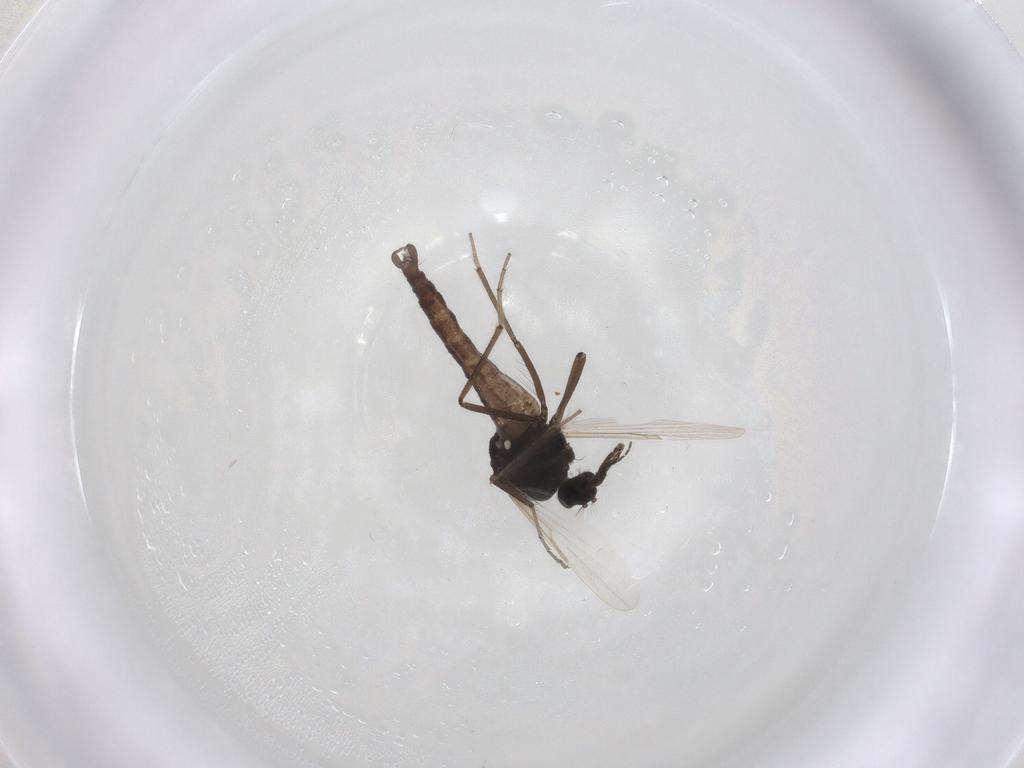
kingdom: Animalia
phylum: Arthropoda
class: Insecta
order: Diptera
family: Ceratopogonidae
